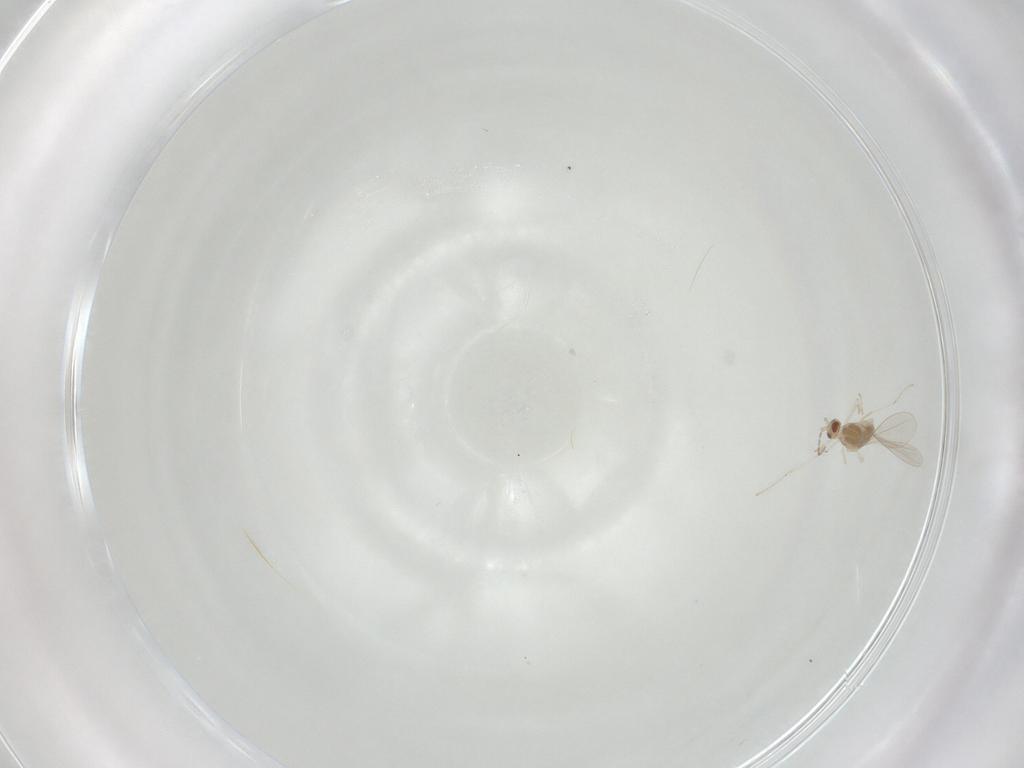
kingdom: Animalia
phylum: Arthropoda
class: Insecta
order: Diptera
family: Cecidomyiidae
